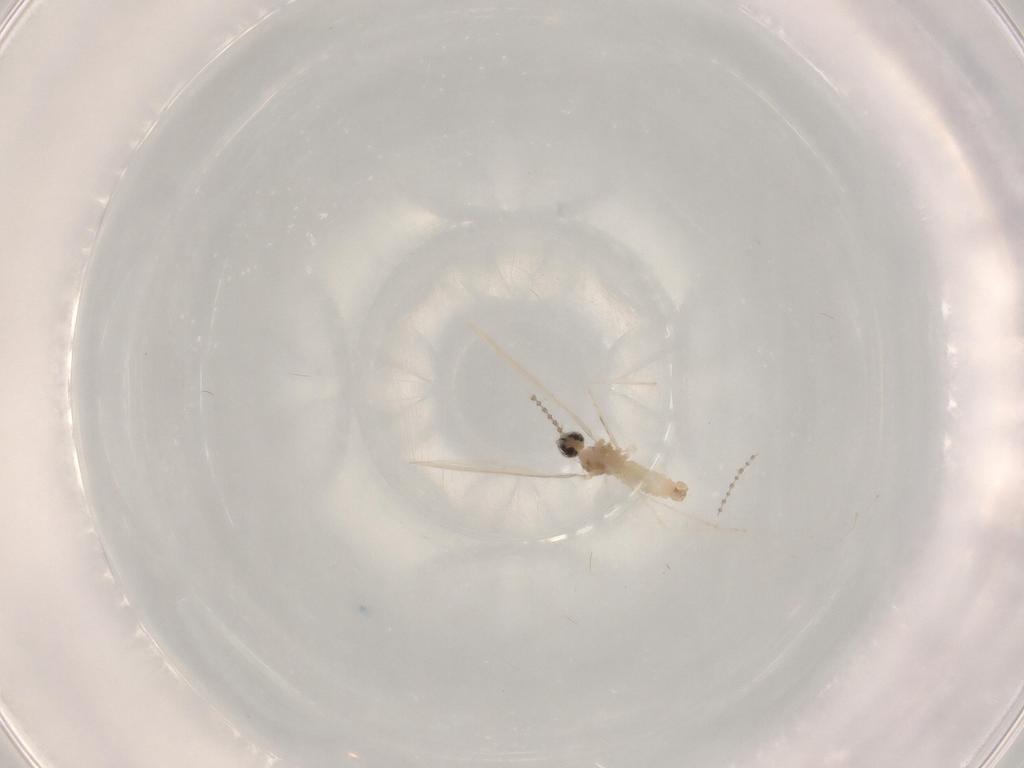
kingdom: Animalia
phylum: Arthropoda
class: Insecta
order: Diptera
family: Cecidomyiidae
